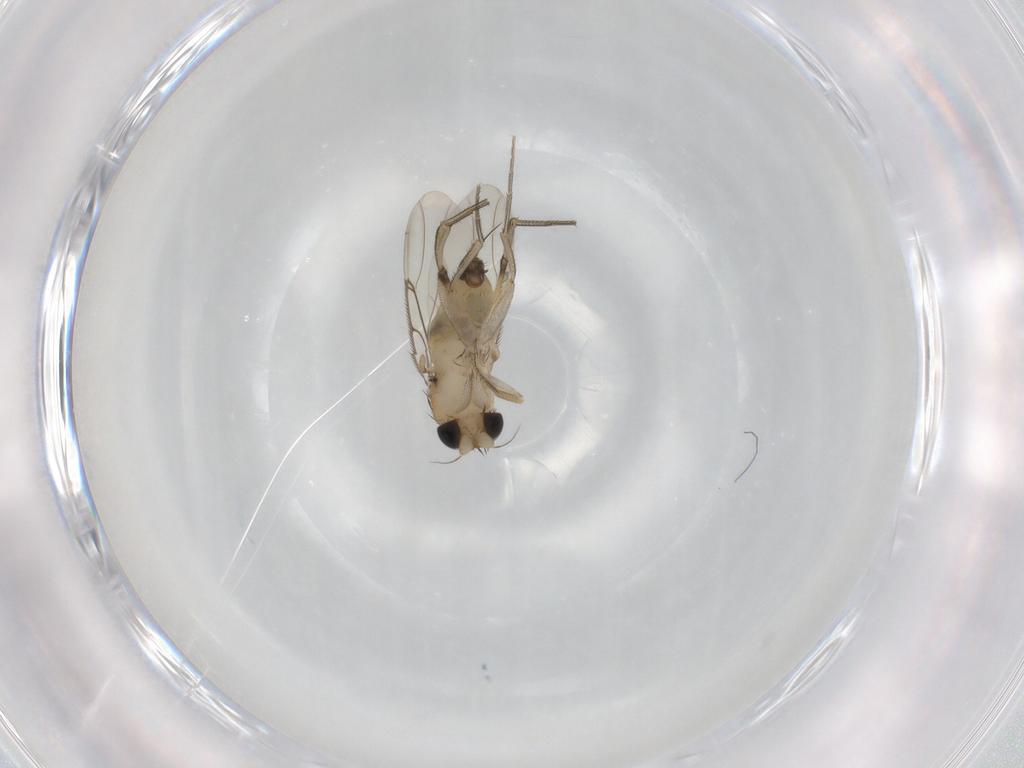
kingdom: Animalia
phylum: Arthropoda
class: Insecta
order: Diptera
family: Phoridae
